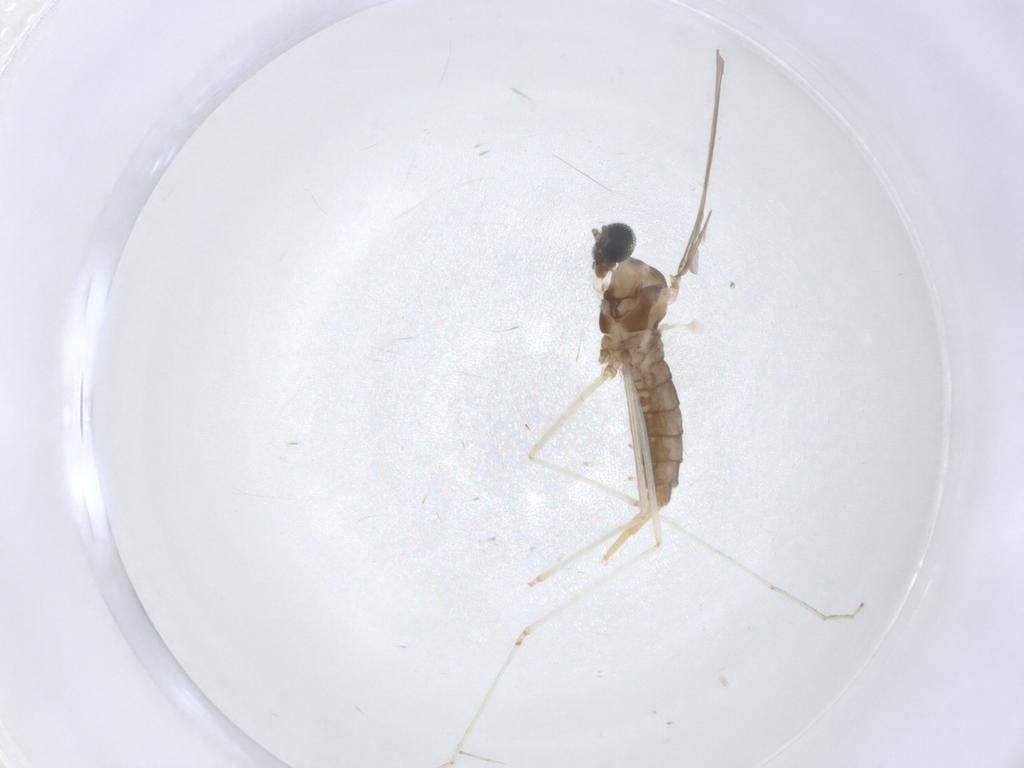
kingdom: Animalia
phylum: Arthropoda
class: Insecta
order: Diptera
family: Cecidomyiidae
